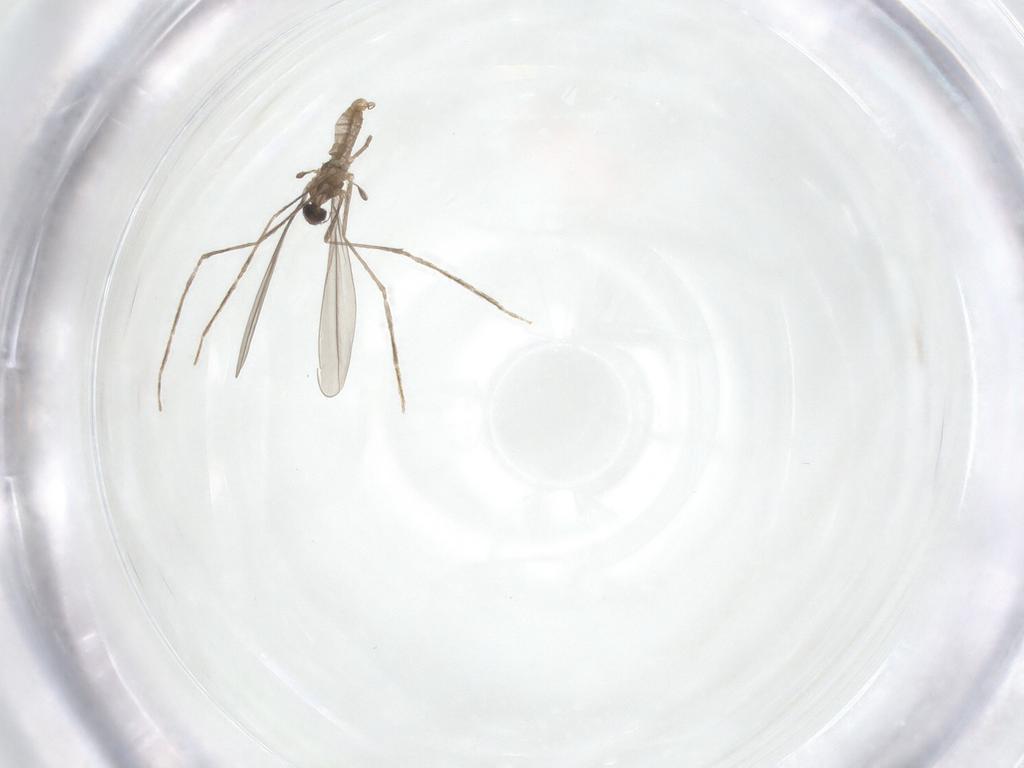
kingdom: Animalia
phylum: Arthropoda
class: Insecta
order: Diptera
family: Cecidomyiidae
